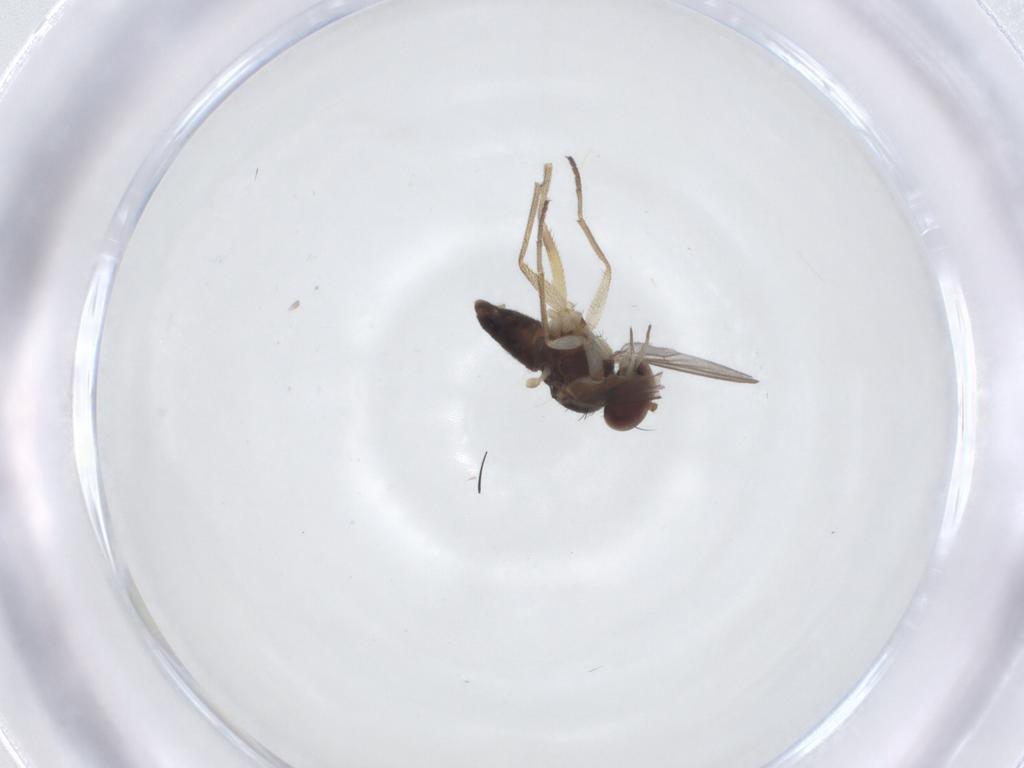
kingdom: Animalia
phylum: Arthropoda
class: Insecta
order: Diptera
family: Dolichopodidae
